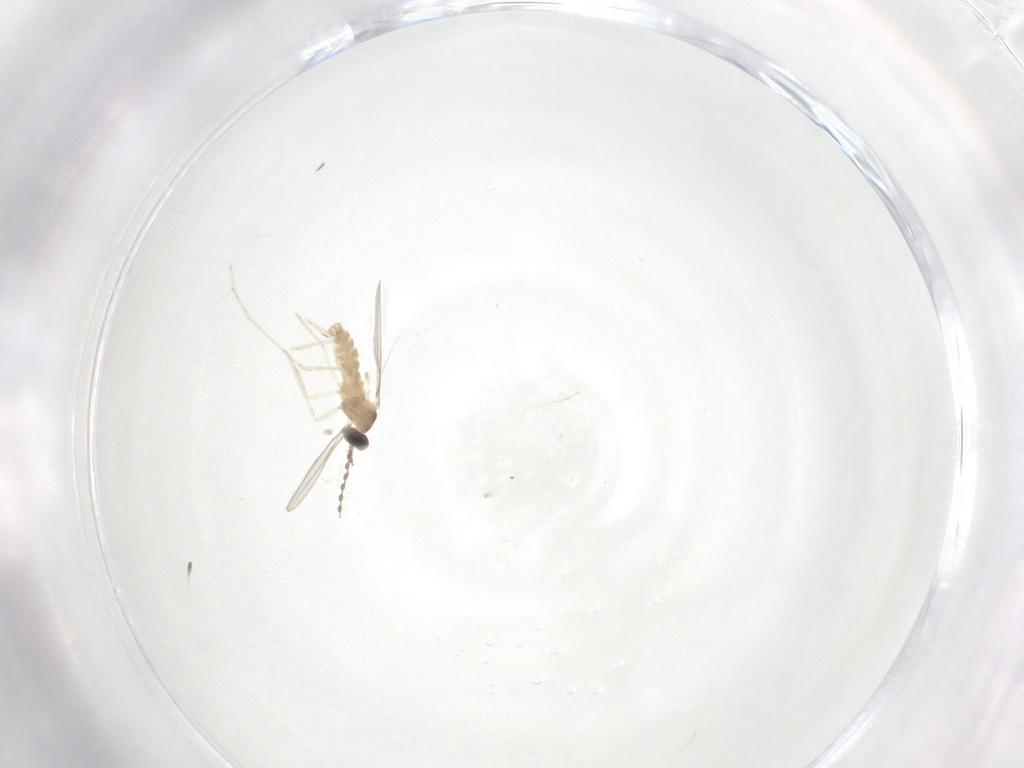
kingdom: Animalia
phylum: Arthropoda
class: Insecta
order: Diptera
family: Cecidomyiidae
